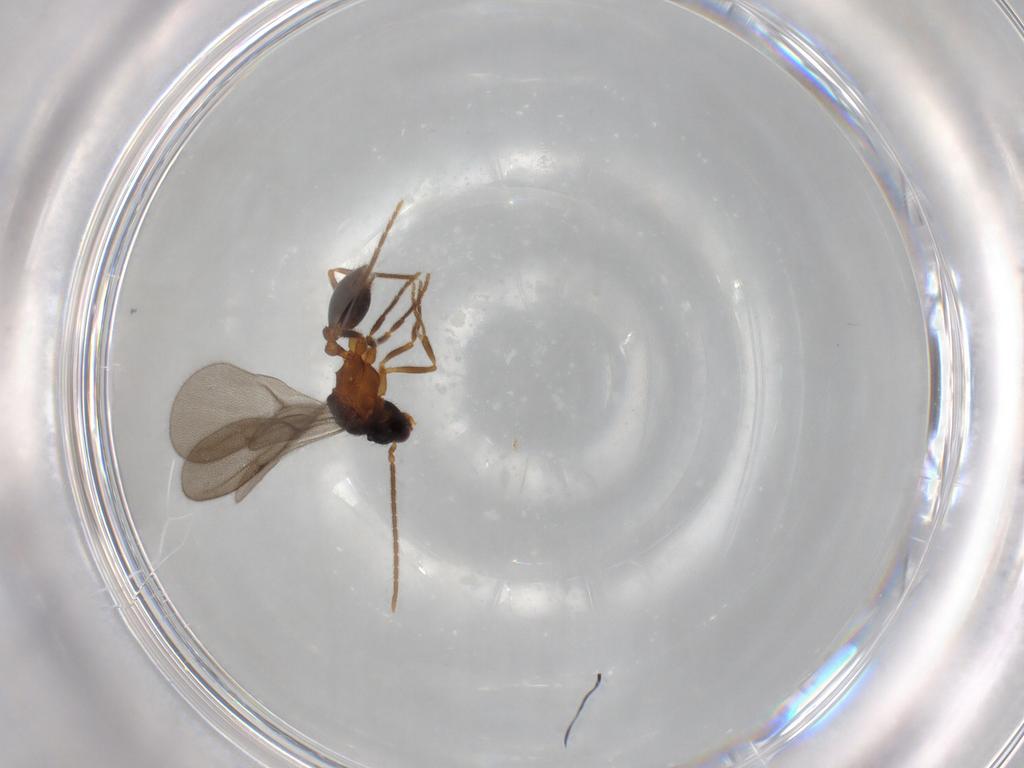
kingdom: Animalia
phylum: Arthropoda
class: Insecta
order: Hymenoptera
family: Formicidae
